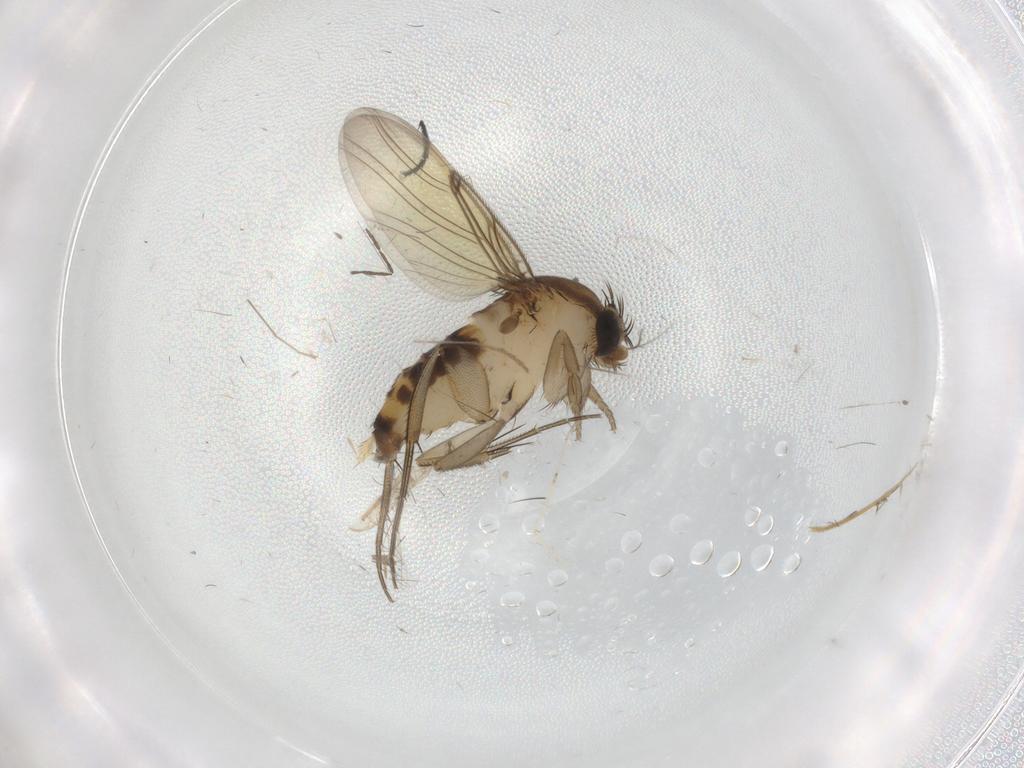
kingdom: Animalia
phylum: Arthropoda
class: Insecta
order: Diptera
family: Phoridae
